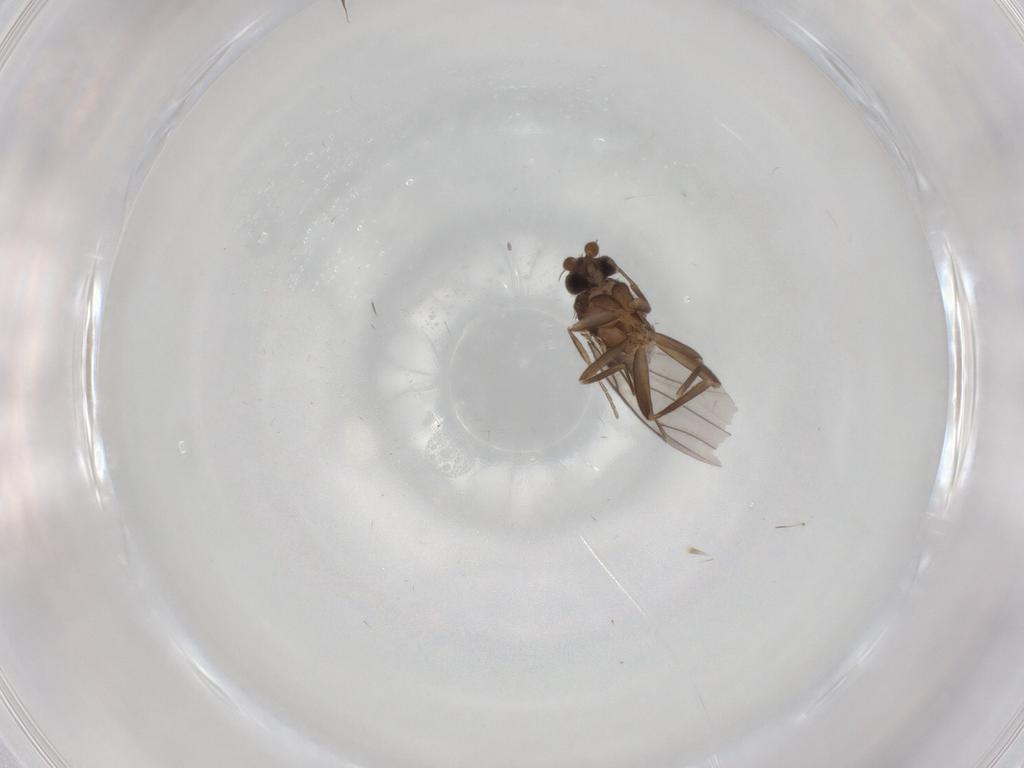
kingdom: Animalia
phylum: Arthropoda
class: Insecta
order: Diptera
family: Phoridae
